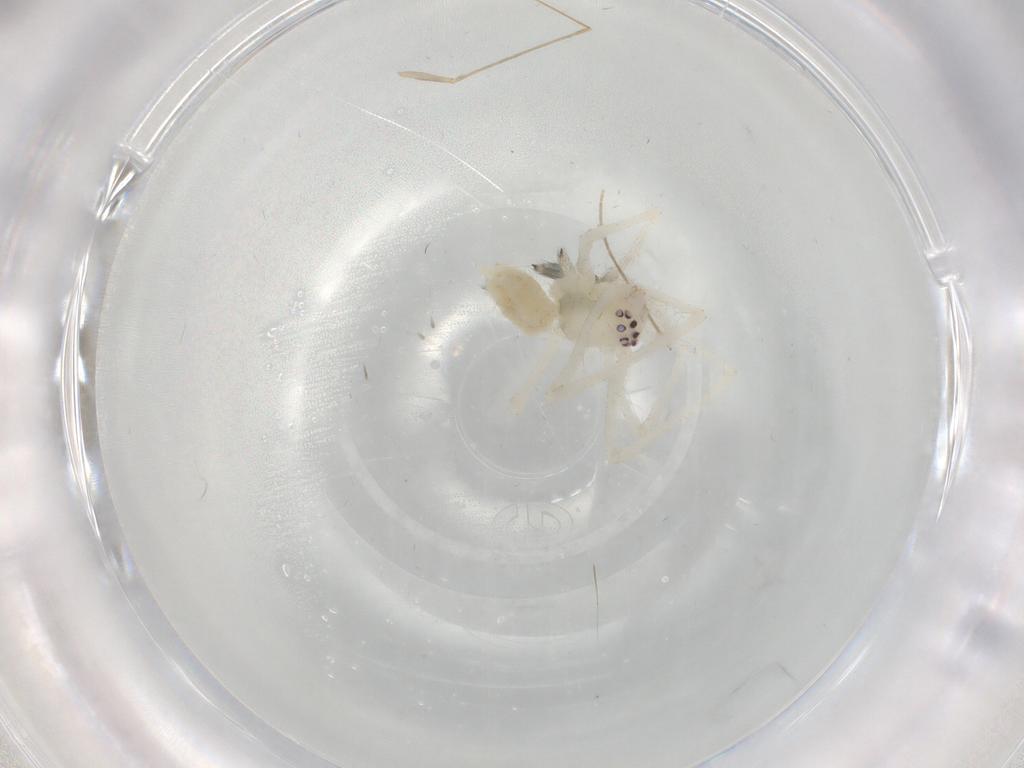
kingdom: Animalia
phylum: Arthropoda
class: Arachnida
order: Araneae
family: Cheiracanthiidae
